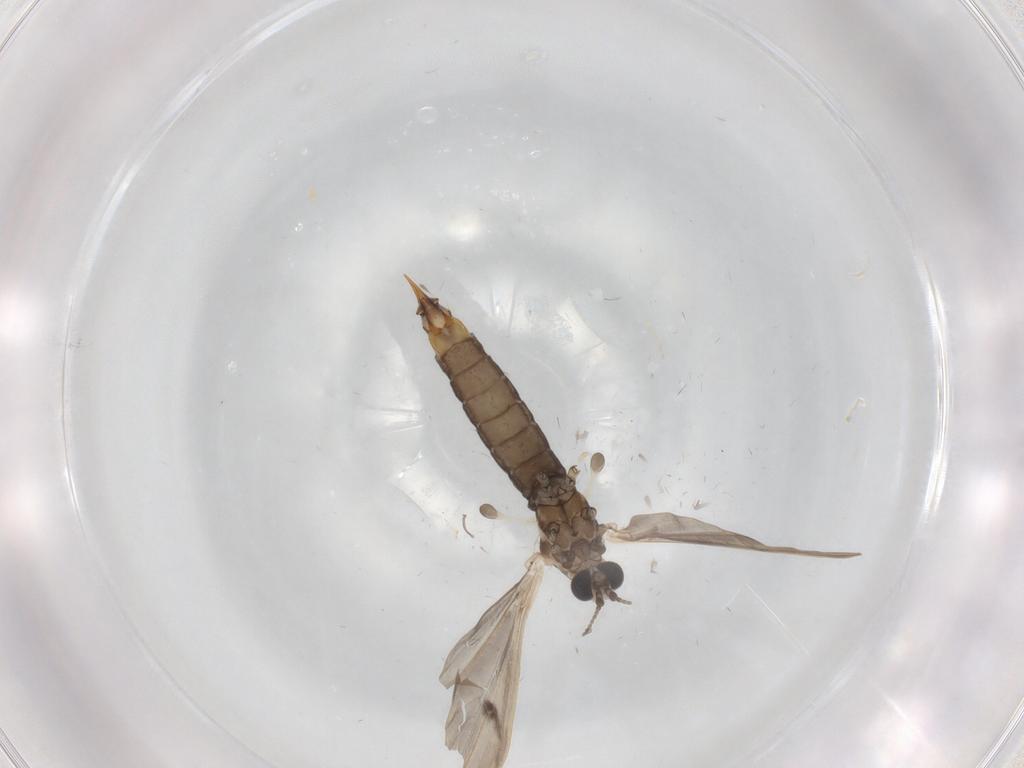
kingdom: Animalia
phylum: Arthropoda
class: Insecta
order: Diptera
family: Limoniidae
